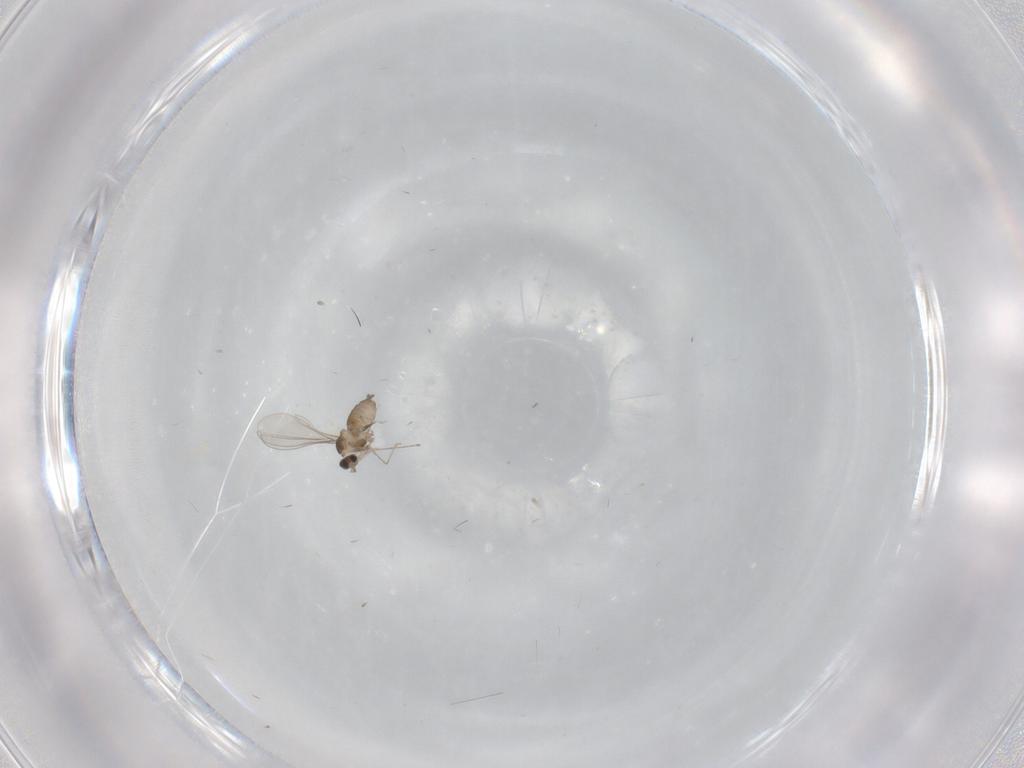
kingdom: Animalia
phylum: Arthropoda
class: Insecta
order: Diptera
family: Cecidomyiidae
